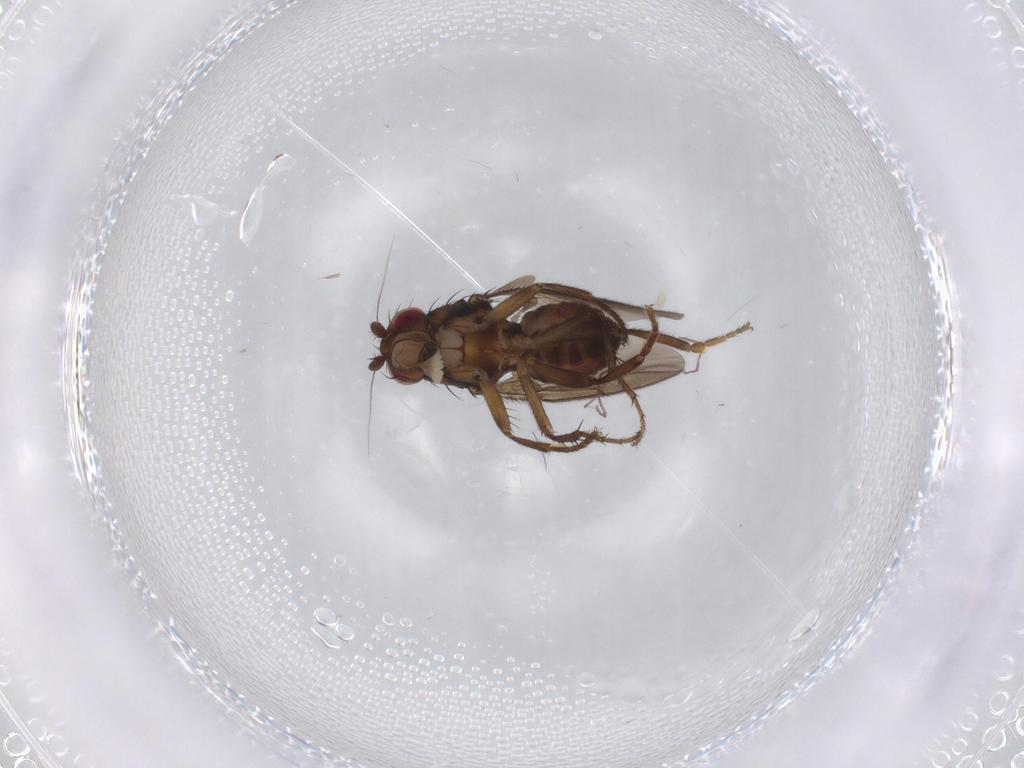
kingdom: Animalia
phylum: Arthropoda
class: Insecta
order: Diptera
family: Sphaeroceridae
